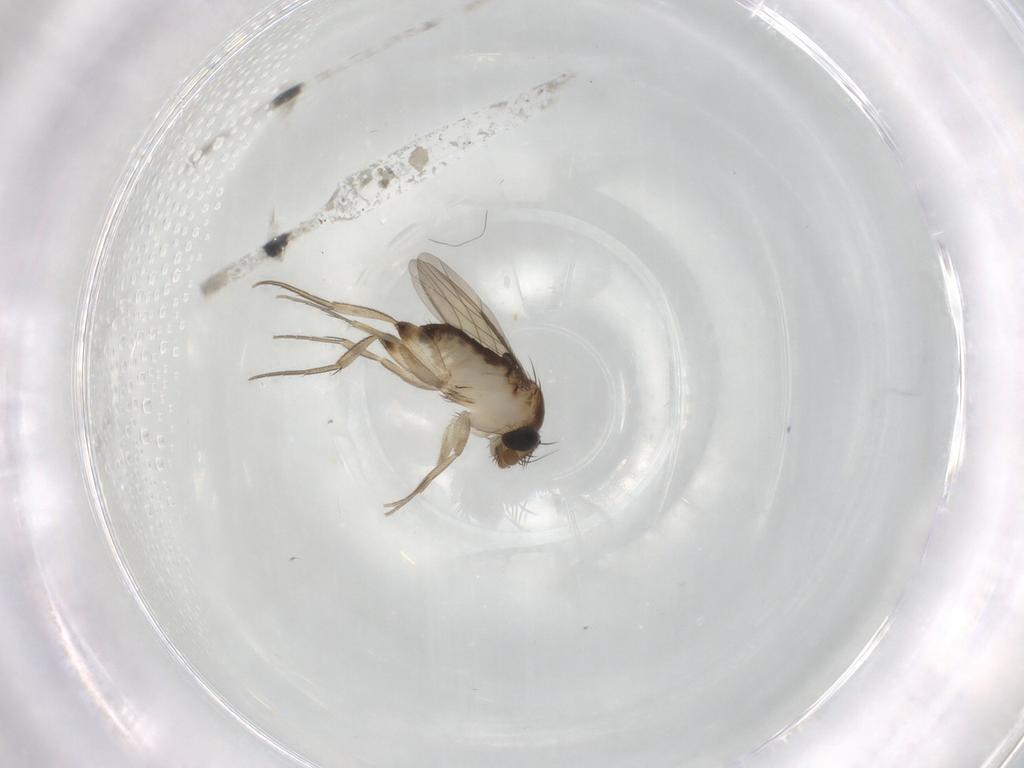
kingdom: Animalia
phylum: Arthropoda
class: Insecta
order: Diptera
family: Phoridae
